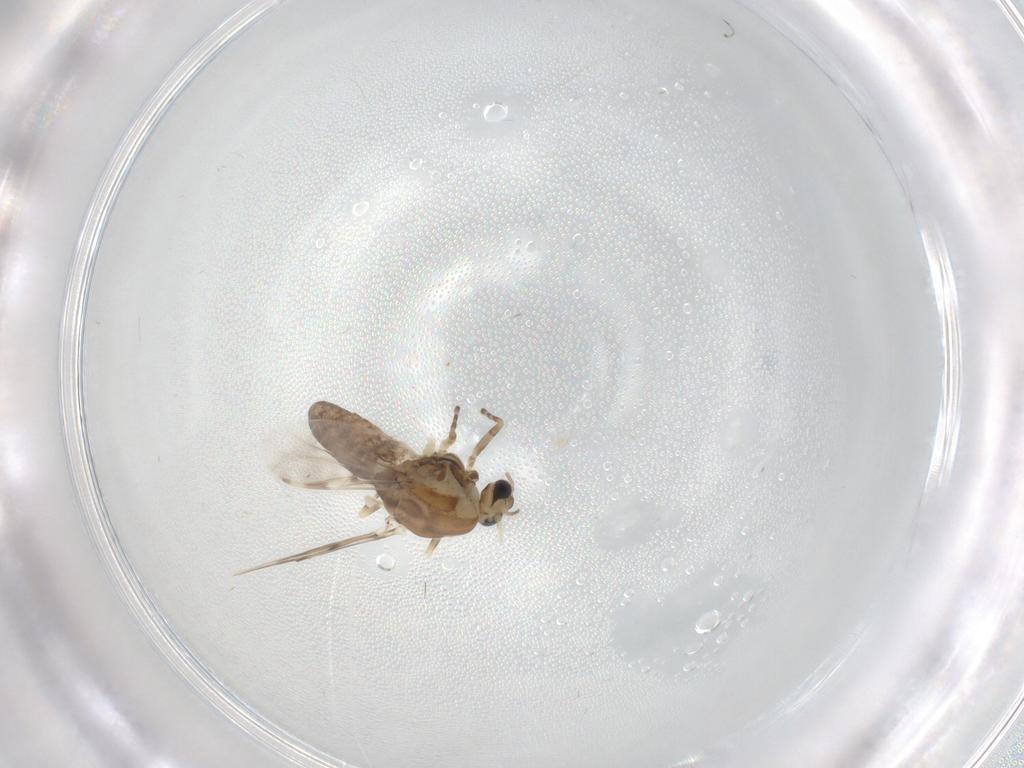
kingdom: Animalia
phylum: Arthropoda
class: Insecta
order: Diptera
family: Chironomidae
